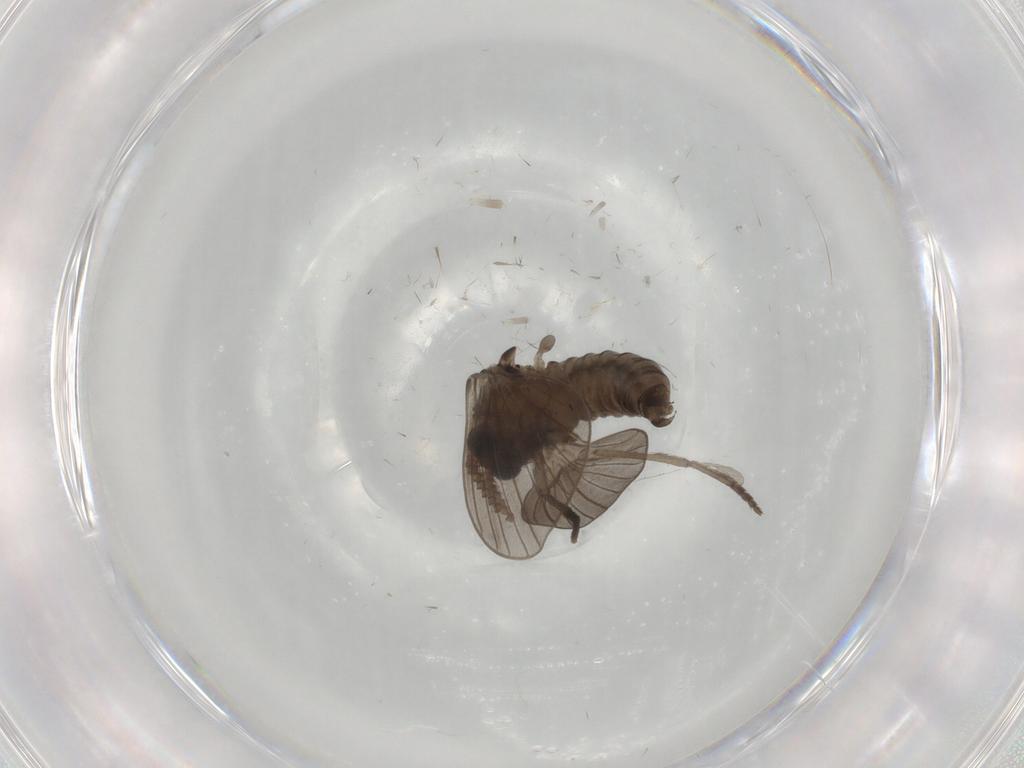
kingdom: Animalia
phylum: Arthropoda
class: Insecta
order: Diptera
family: Psychodidae
